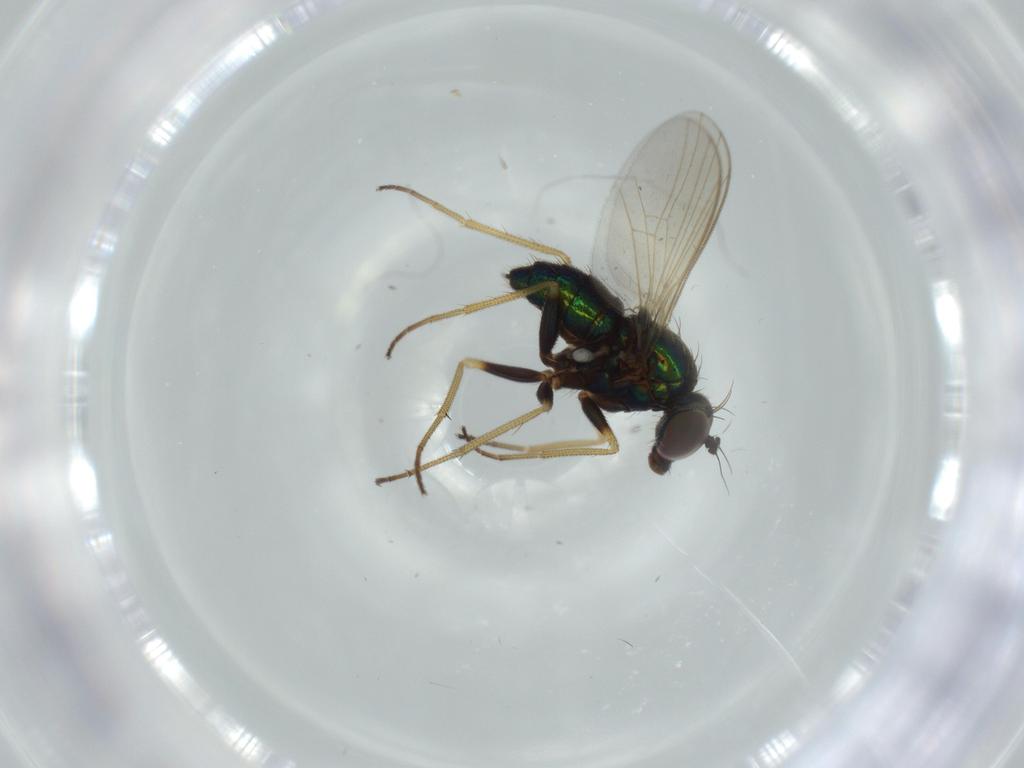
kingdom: Animalia
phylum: Arthropoda
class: Insecta
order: Diptera
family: Dolichopodidae
